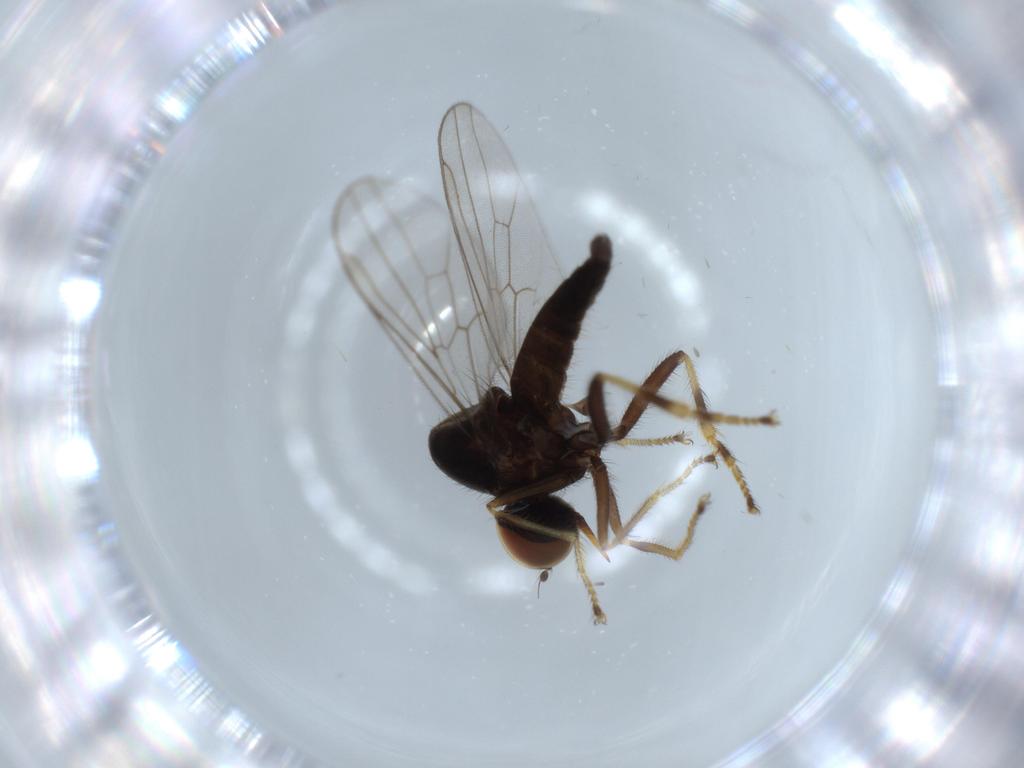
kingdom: Animalia
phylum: Arthropoda
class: Insecta
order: Diptera
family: Hybotidae
